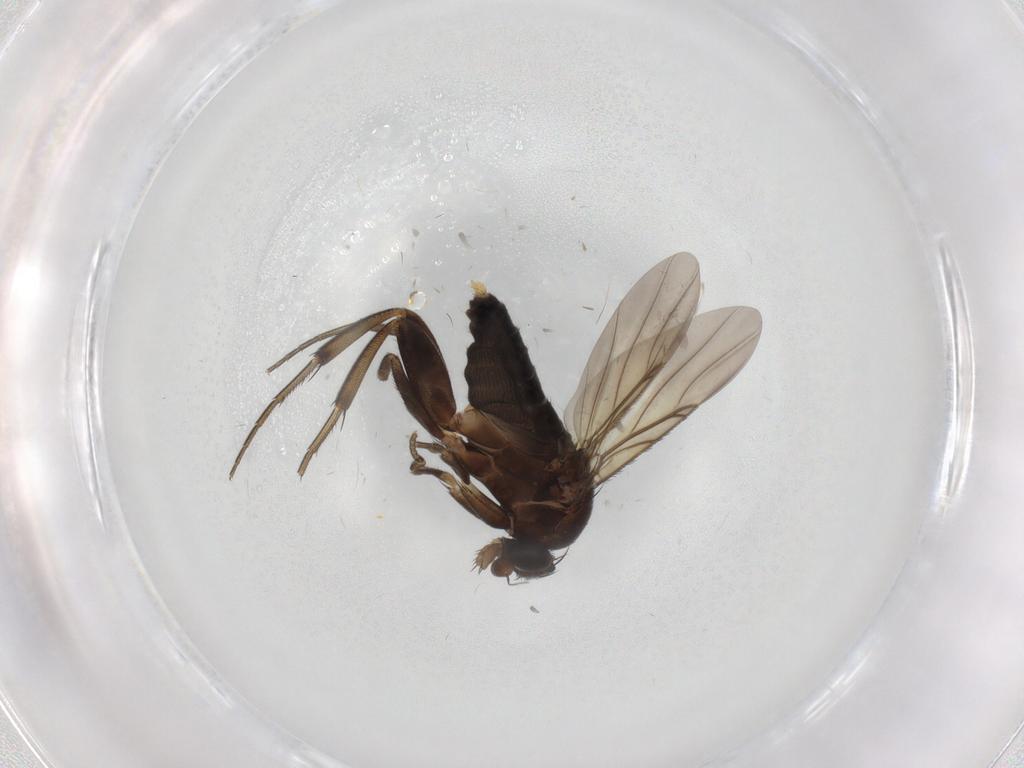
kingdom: Animalia
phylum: Arthropoda
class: Insecta
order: Diptera
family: Phoridae
